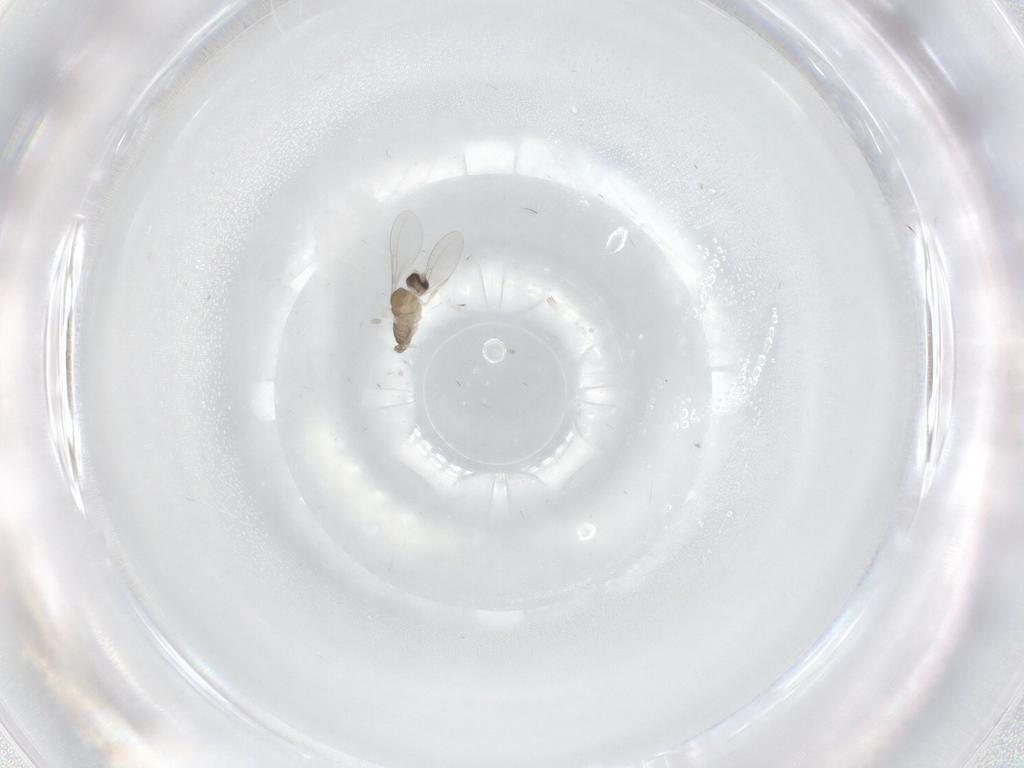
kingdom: Animalia
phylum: Arthropoda
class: Insecta
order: Diptera
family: Cecidomyiidae
